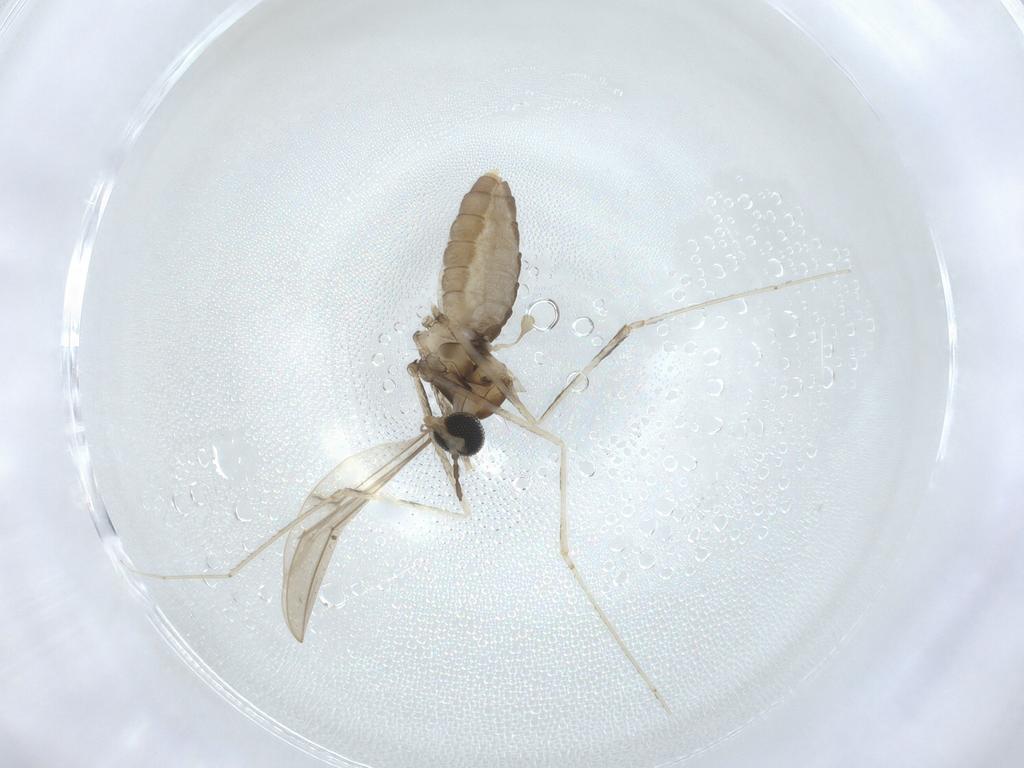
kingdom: Animalia
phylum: Arthropoda
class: Insecta
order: Diptera
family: Cecidomyiidae
